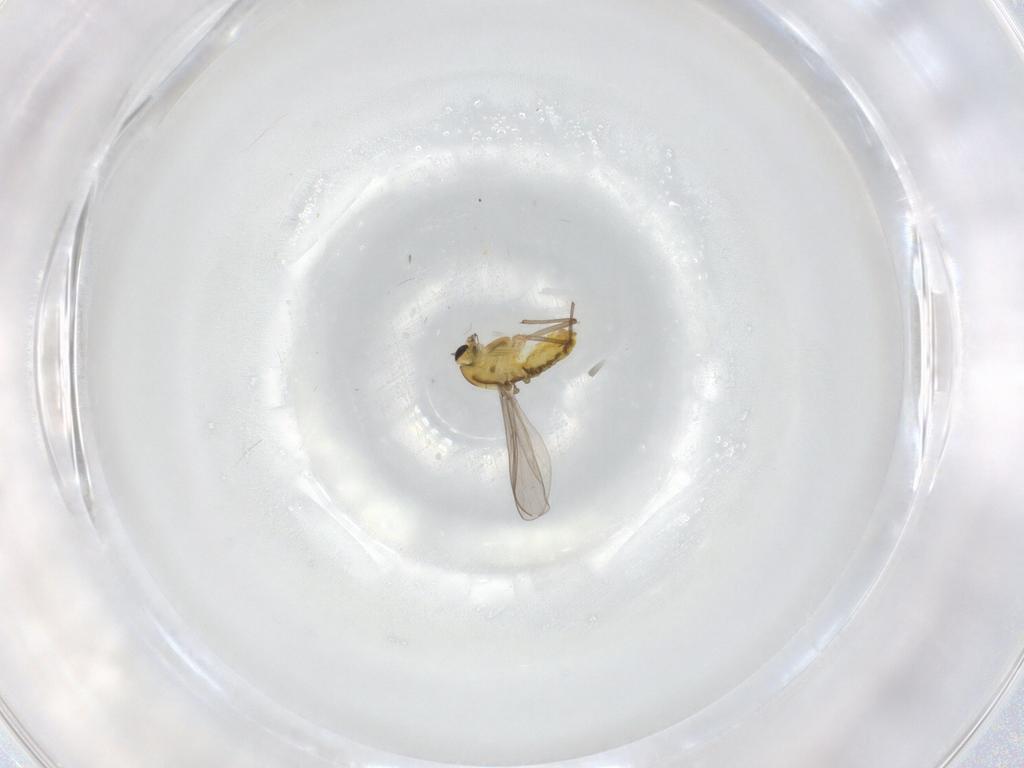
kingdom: Animalia
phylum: Arthropoda
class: Insecta
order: Diptera
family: Chironomidae
